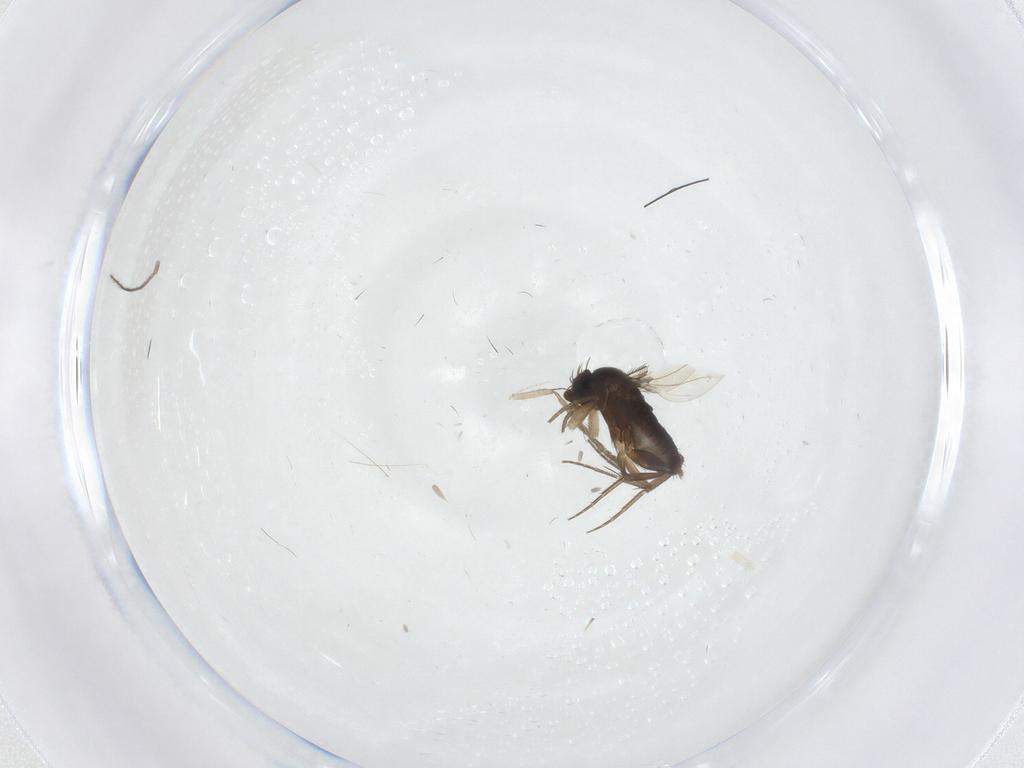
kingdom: Animalia
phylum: Arthropoda
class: Insecta
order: Diptera
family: Phoridae
